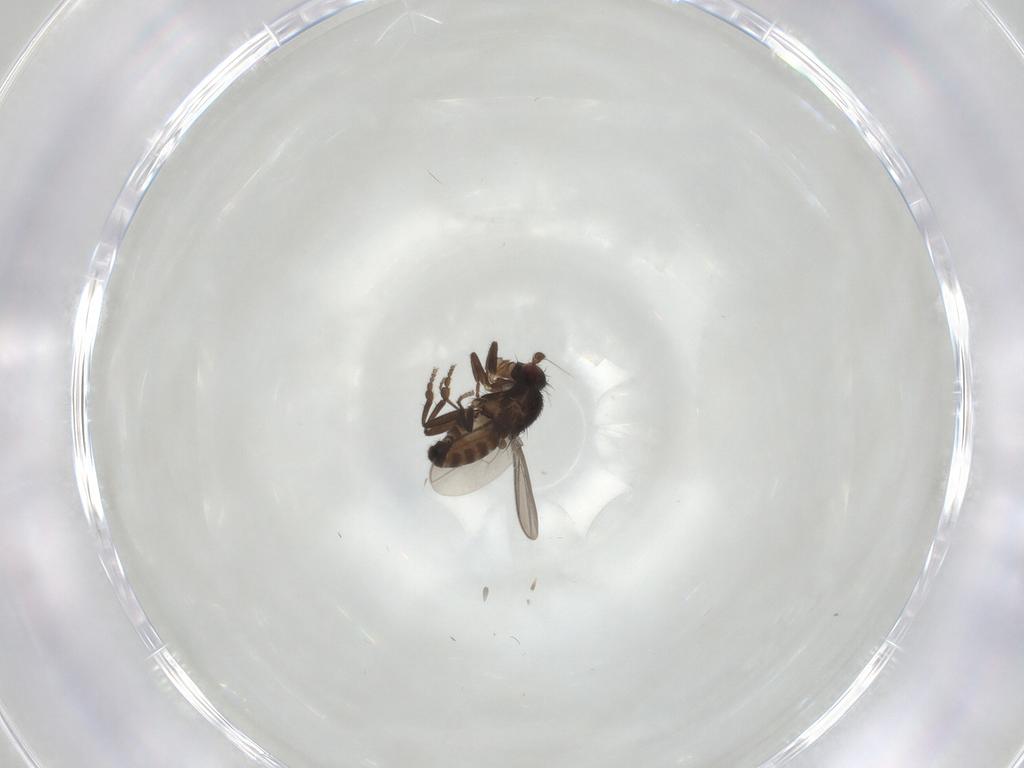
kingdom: Animalia
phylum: Arthropoda
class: Insecta
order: Diptera
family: Sphaeroceridae
